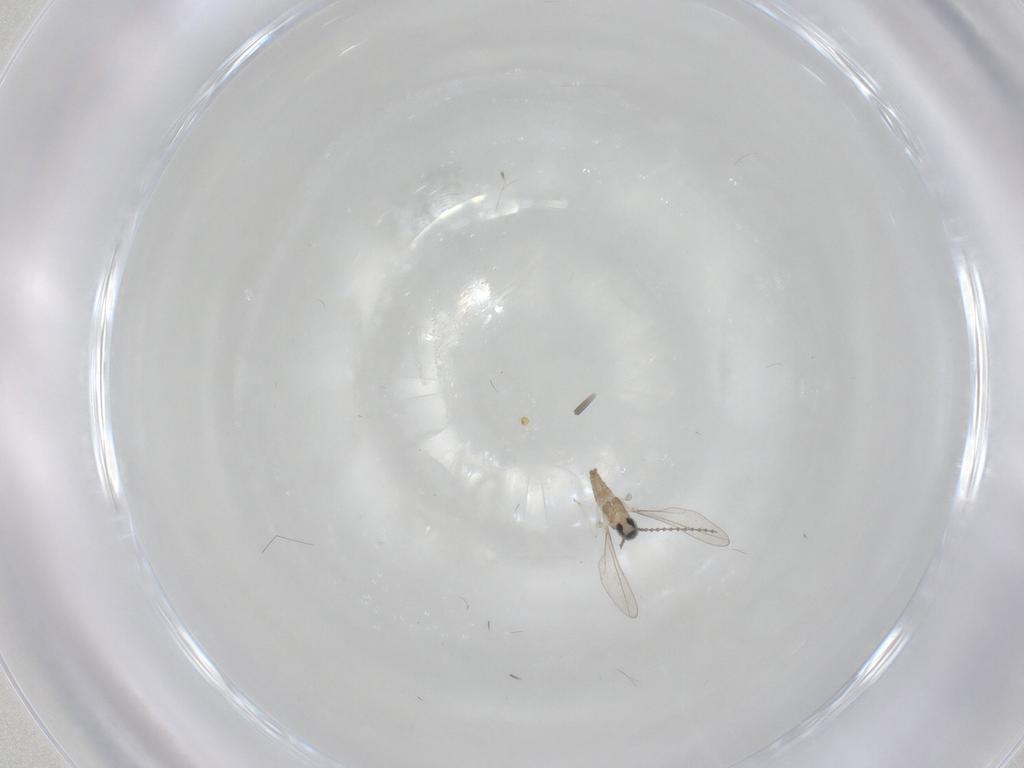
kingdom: Animalia
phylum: Arthropoda
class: Insecta
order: Diptera
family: Cecidomyiidae
